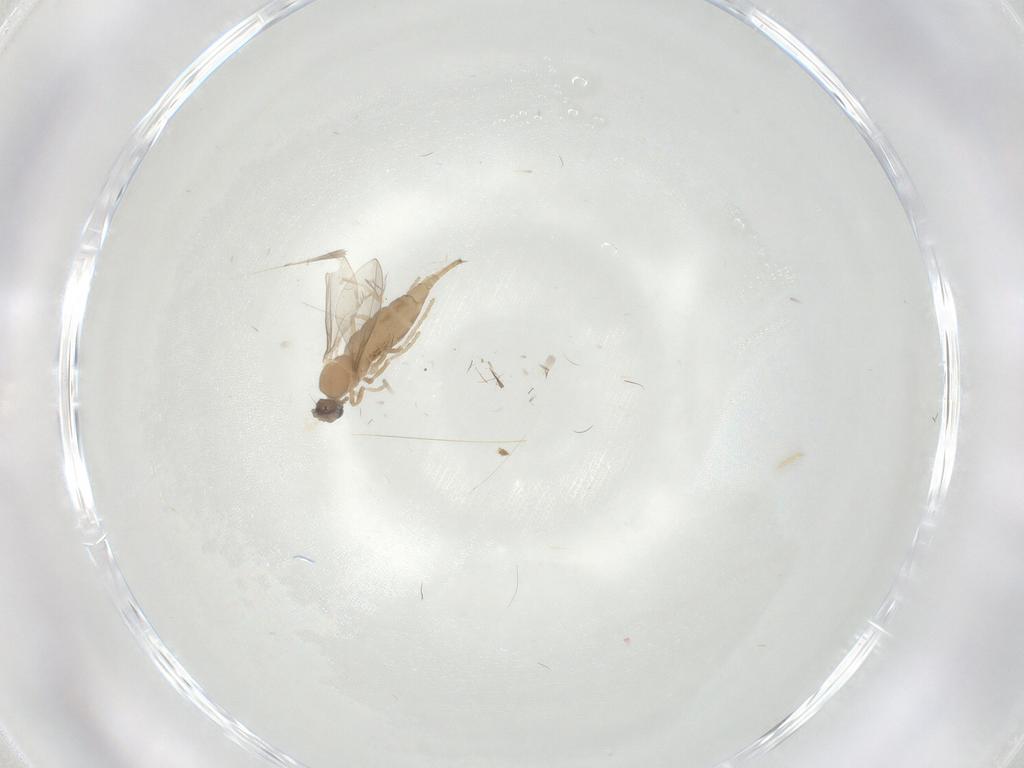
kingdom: Animalia
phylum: Arthropoda
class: Insecta
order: Diptera
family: Cecidomyiidae
